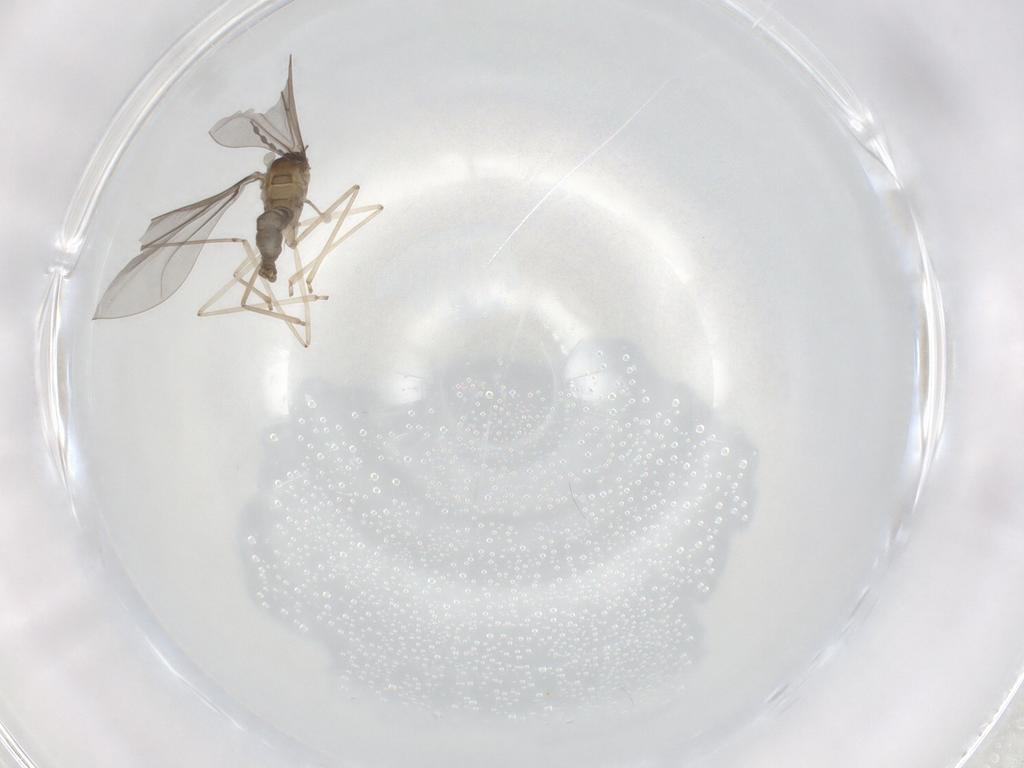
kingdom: Animalia
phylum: Arthropoda
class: Insecta
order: Diptera
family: Cecidomyiidae
